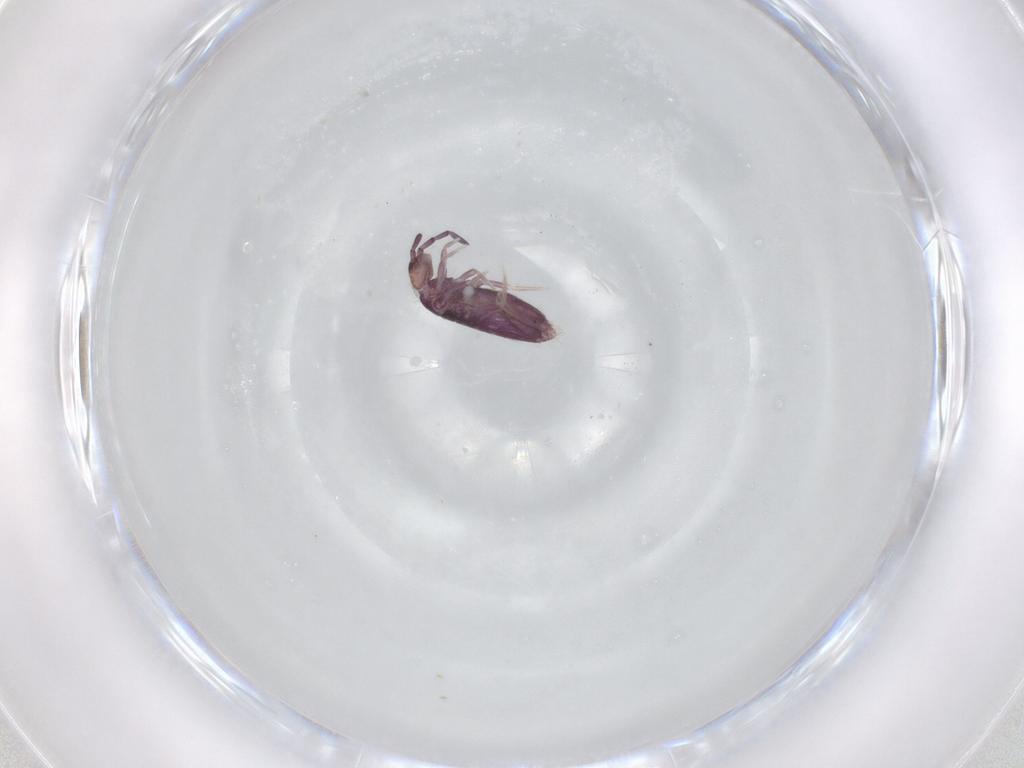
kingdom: Animalia
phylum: Arthropoda
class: Collembola
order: Entomobryomorpha
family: Entomobryidae
